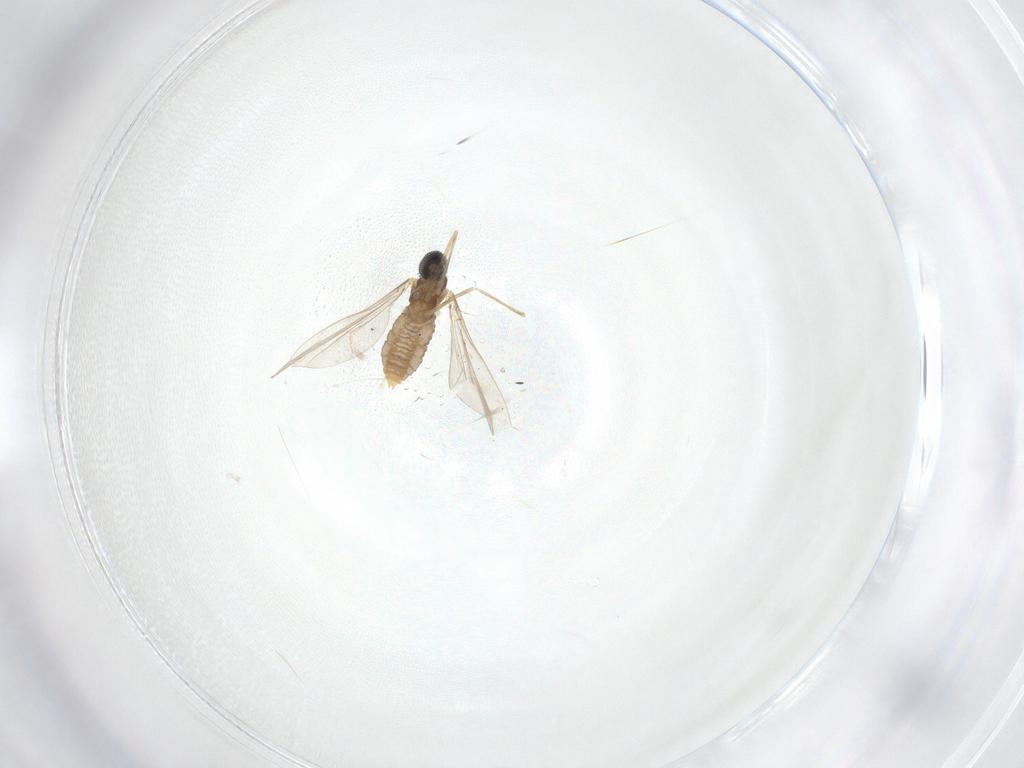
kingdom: Animalia
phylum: Arthropoda
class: Insecta
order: Diptera
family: Cecidomyiidae
